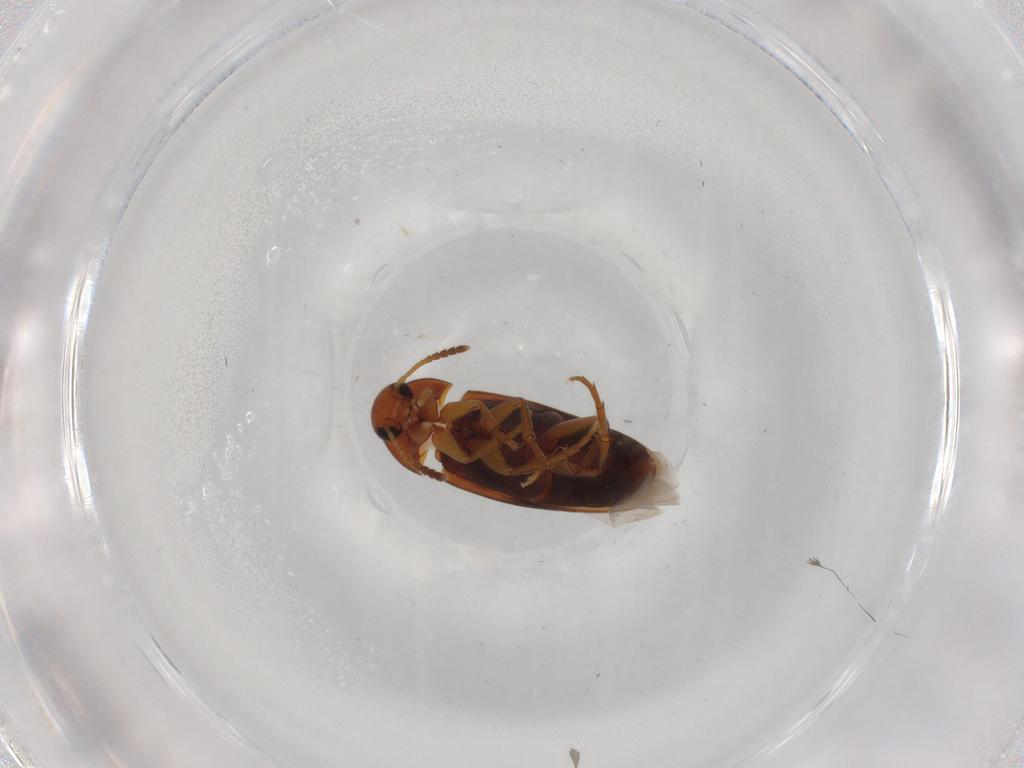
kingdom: Animalia
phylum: Arthropoda
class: Insecta
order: Coleoptera
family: Scraptiidae
